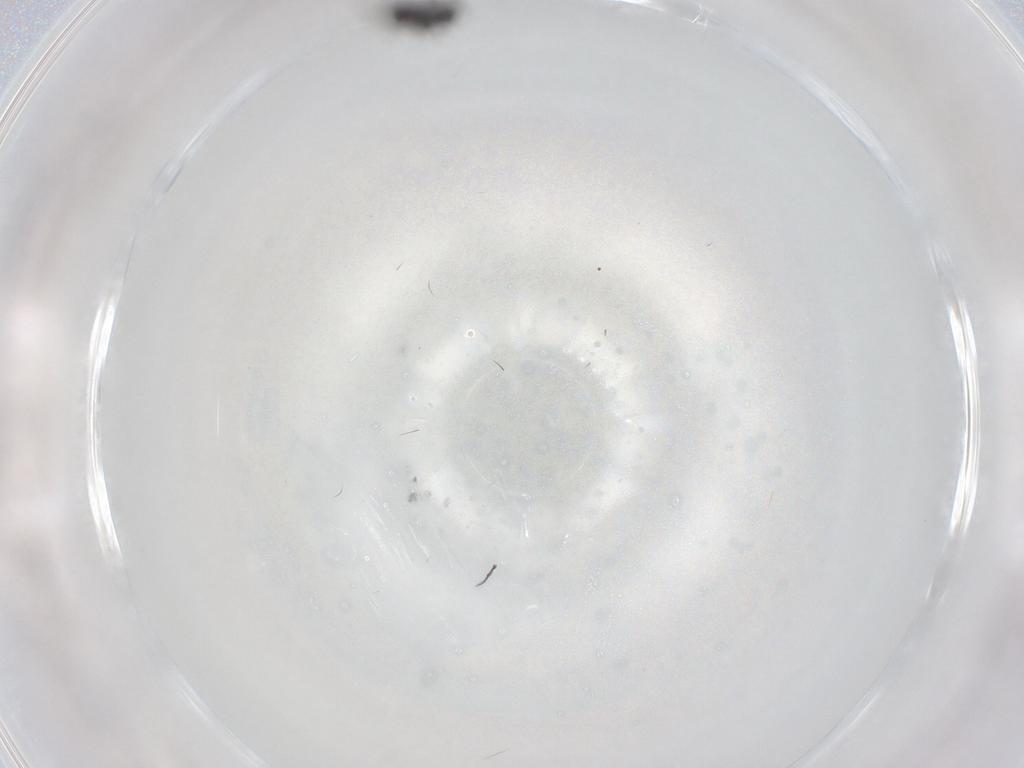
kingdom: Animalia
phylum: Arthropoda
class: Insecta
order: Hymenoptera
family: Mymaridae
